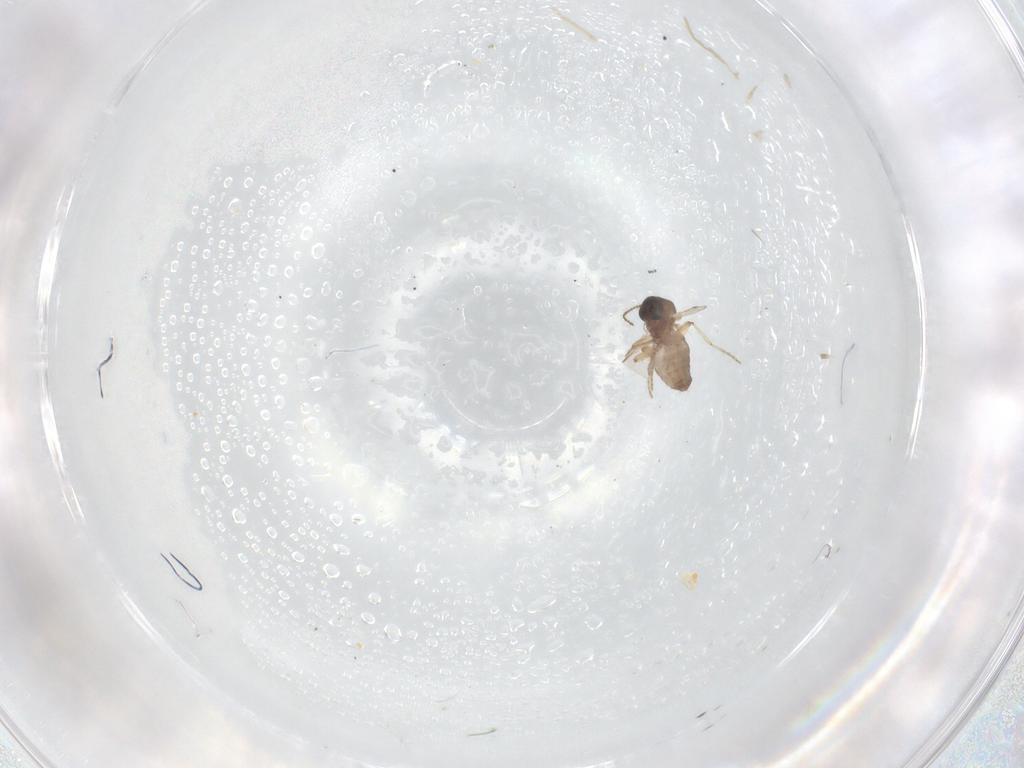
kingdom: Animalia
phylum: Arthropoda
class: Insecta
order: Diptera
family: Ceratopogonidae
